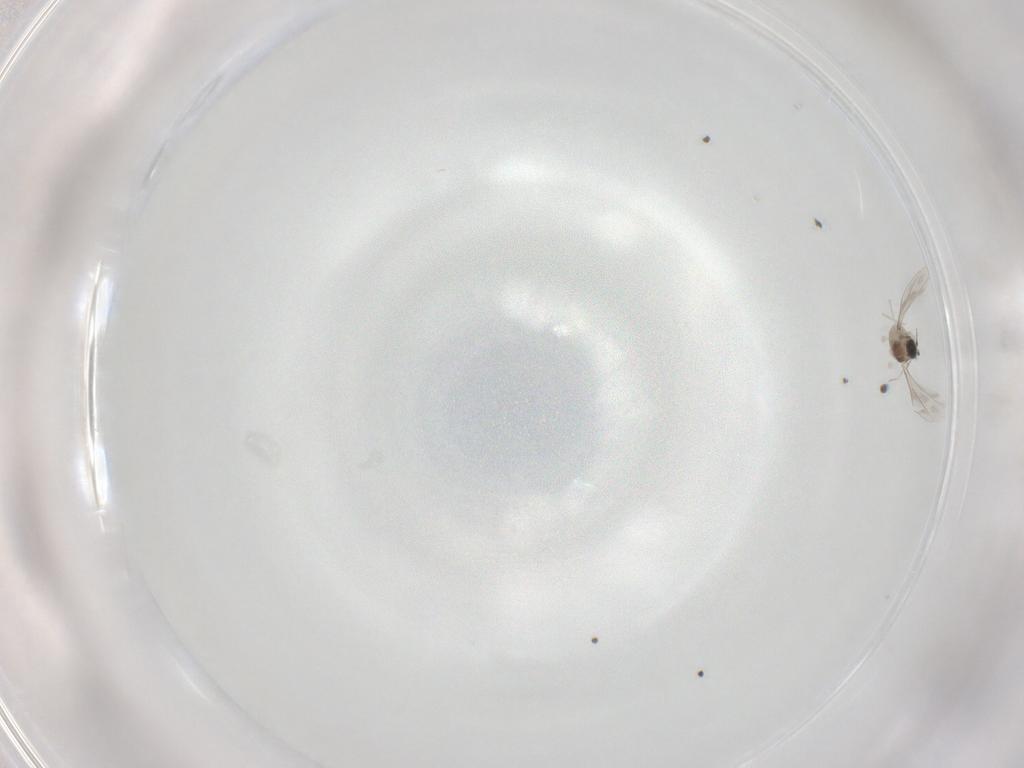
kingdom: Animalia
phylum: Arthropoda
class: Insecta
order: Diptera
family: Cecidomyiidae
